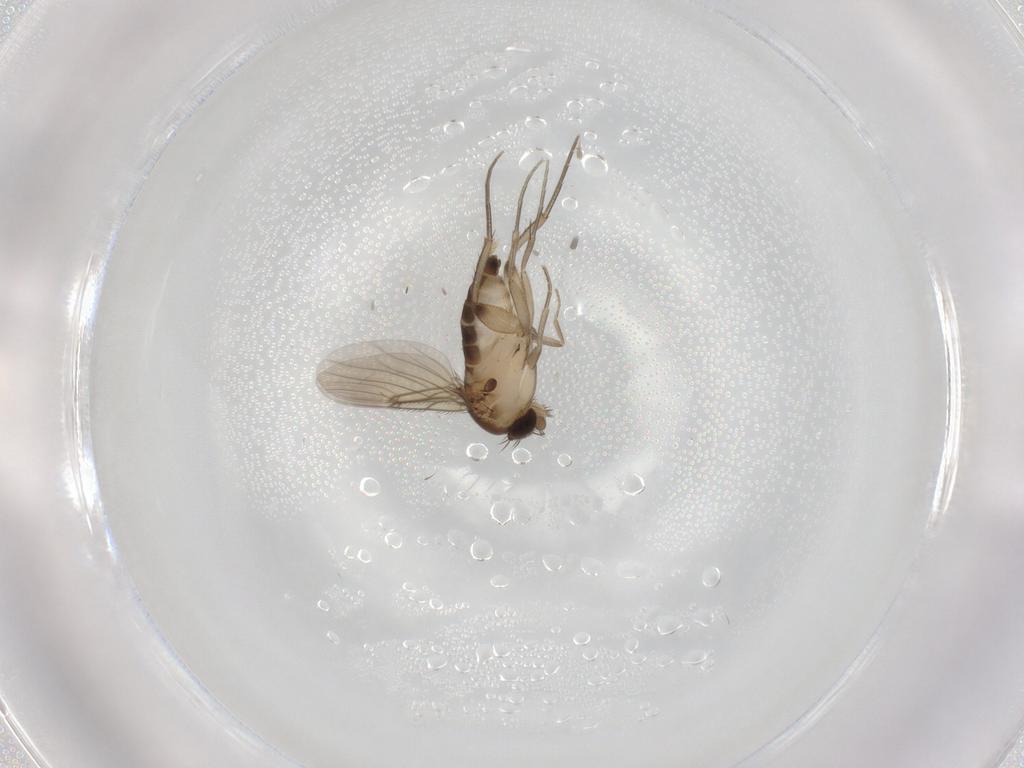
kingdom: Animalia
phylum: Arthropoda
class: Insecta
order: Diptera
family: Phoridae
